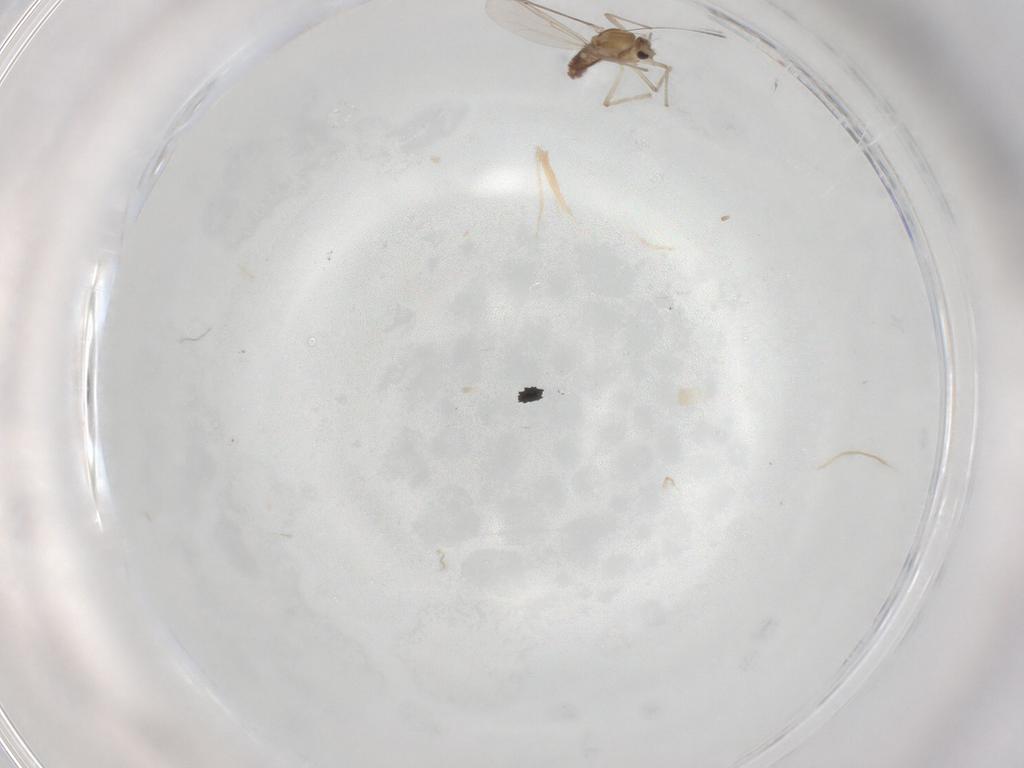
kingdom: Animalia
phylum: Arthropoda
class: Insecta
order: Diptera
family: Chironomidae
